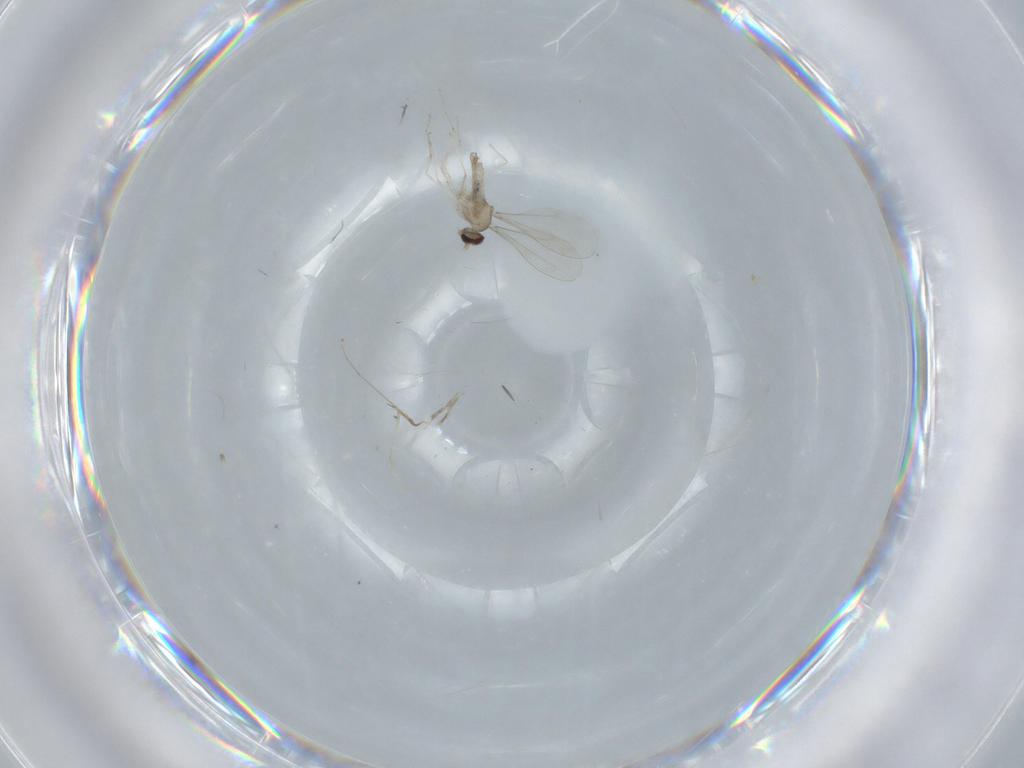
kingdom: Animalia
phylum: Arthropoda
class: Insecta
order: Diptera
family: Cecidomyiidae
